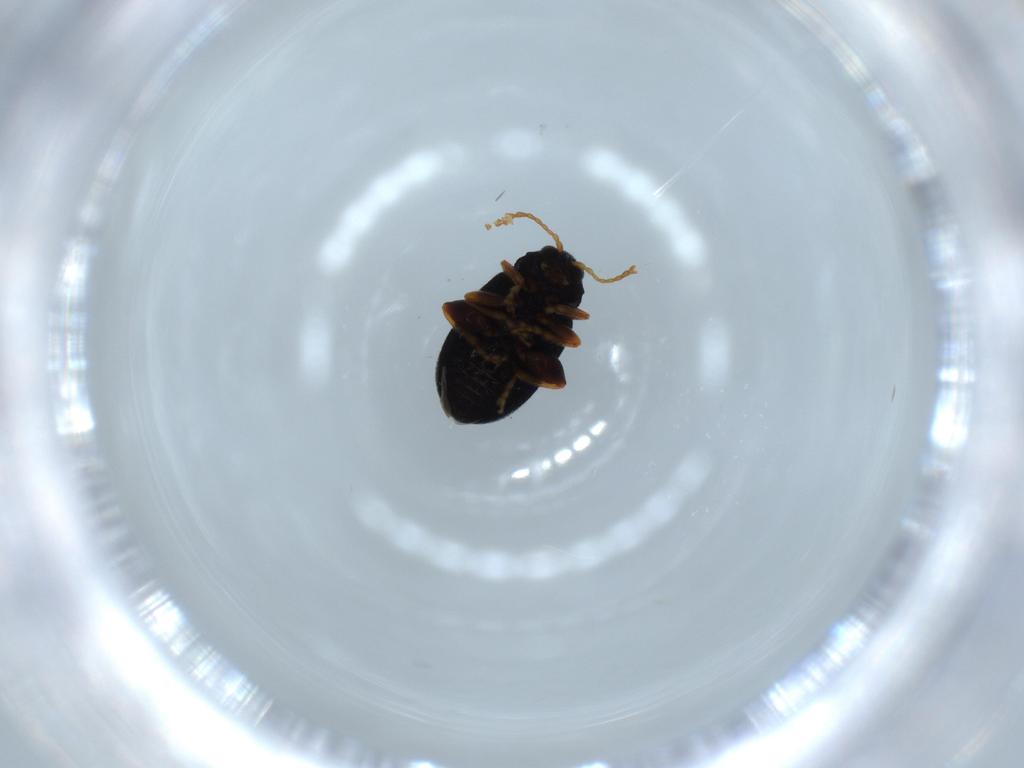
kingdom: Animalia
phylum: Arthropoda
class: Insecta
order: Coleoptera
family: Chrysomelidae
